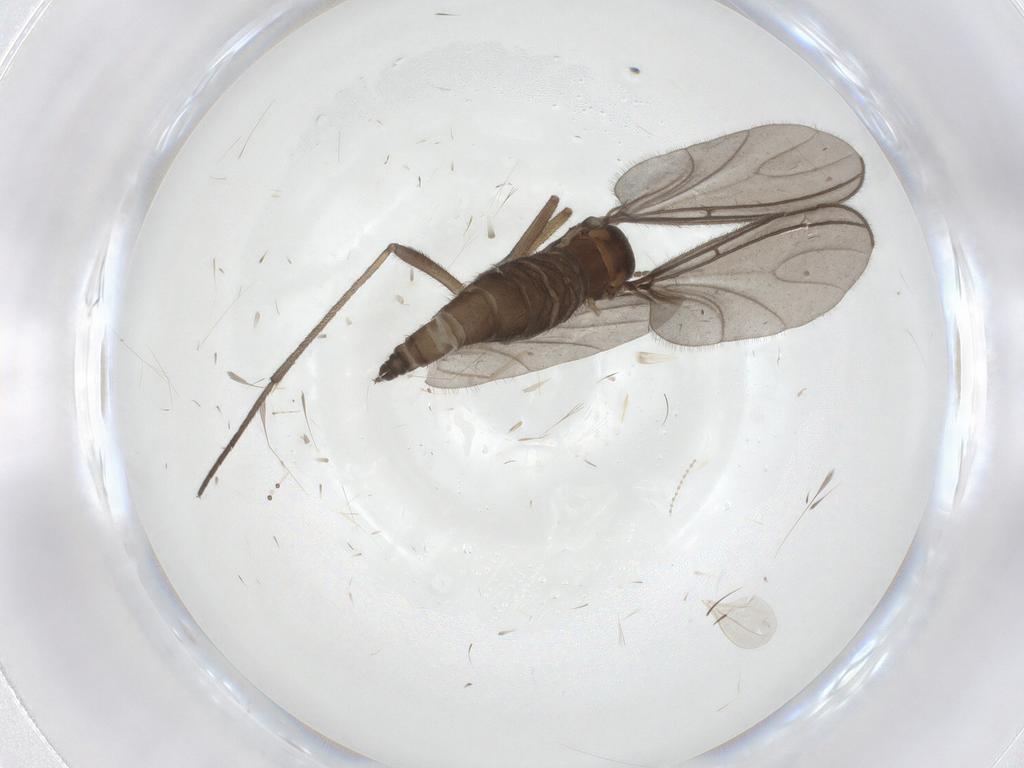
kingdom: Animalia
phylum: Arthropoda
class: Insecta
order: Diptera
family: Sciaridae
